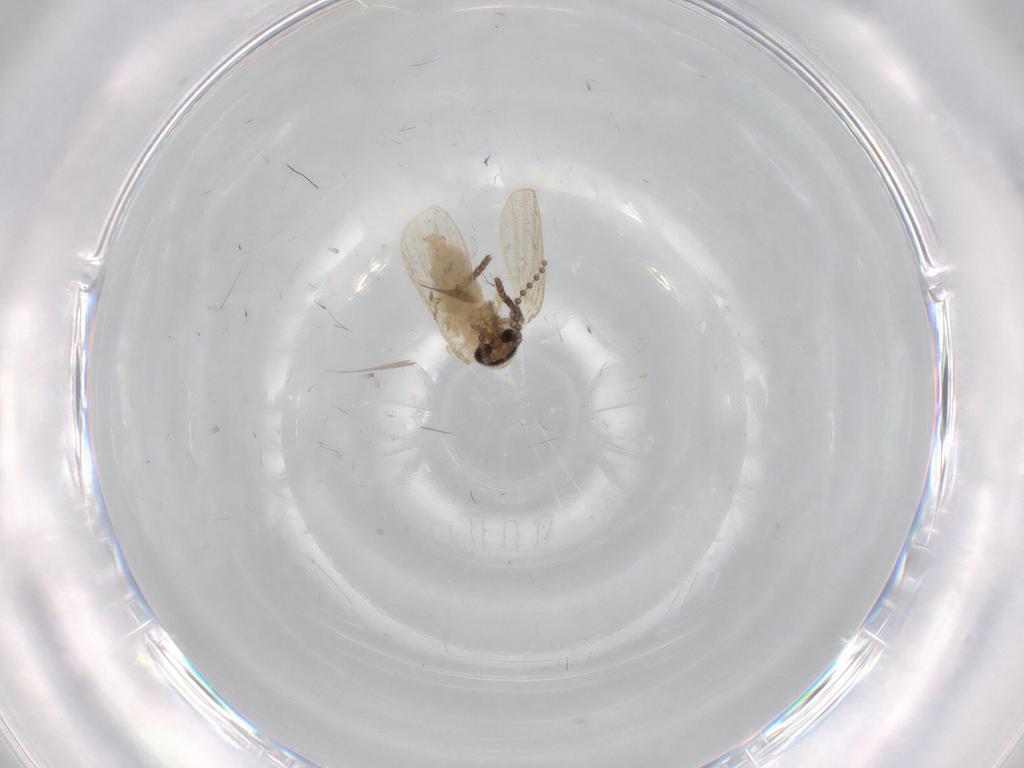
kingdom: Animalia
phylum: Arthropoda
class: Insecta
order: Diptera
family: Psychodidae
